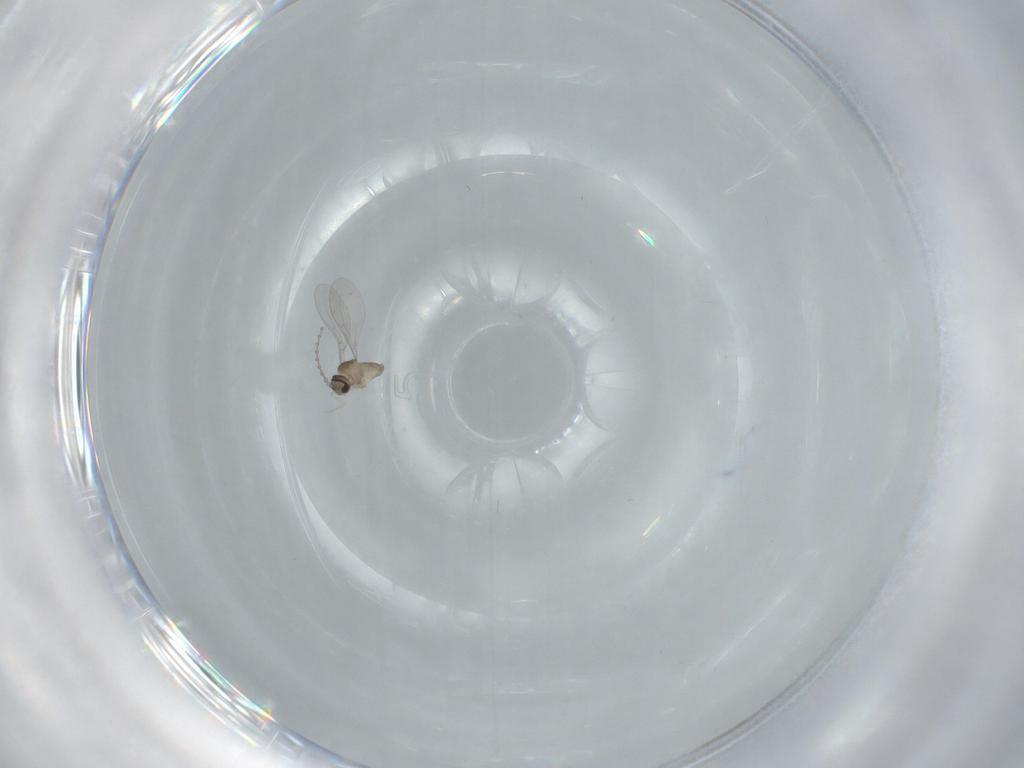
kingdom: Animalia
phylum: Arthropoda
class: Insecta
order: Diptera
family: Cecidomyiidae
